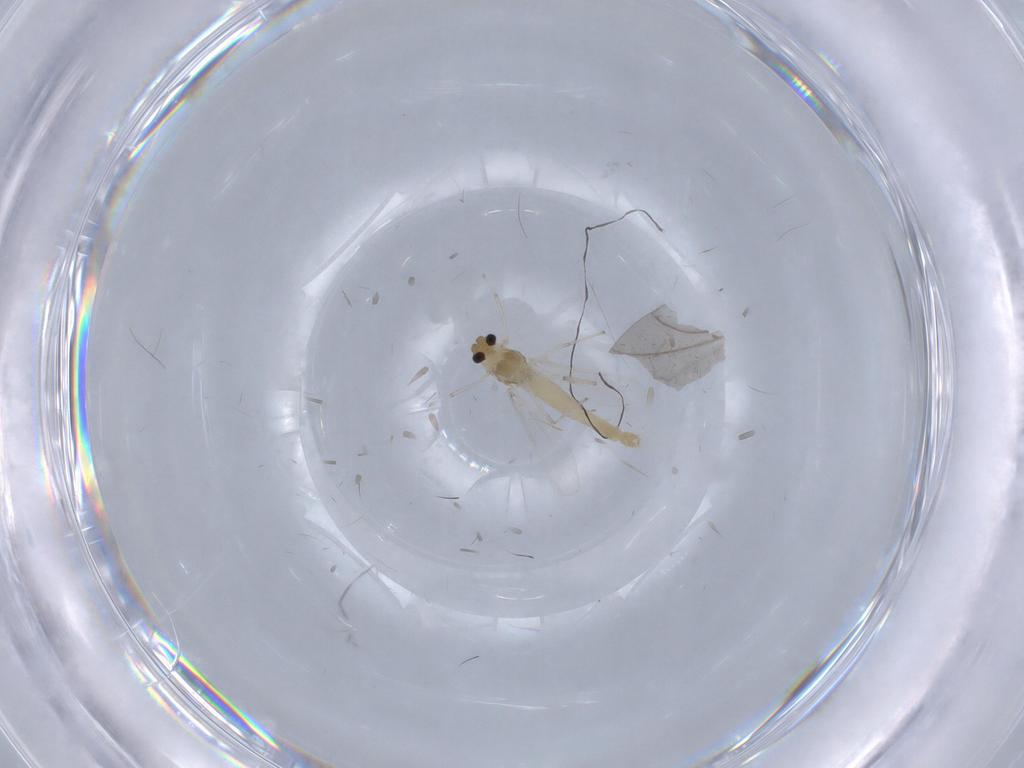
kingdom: Animalia
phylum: Arthropoda
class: Insecta
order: Diptera
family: Chironomidae
